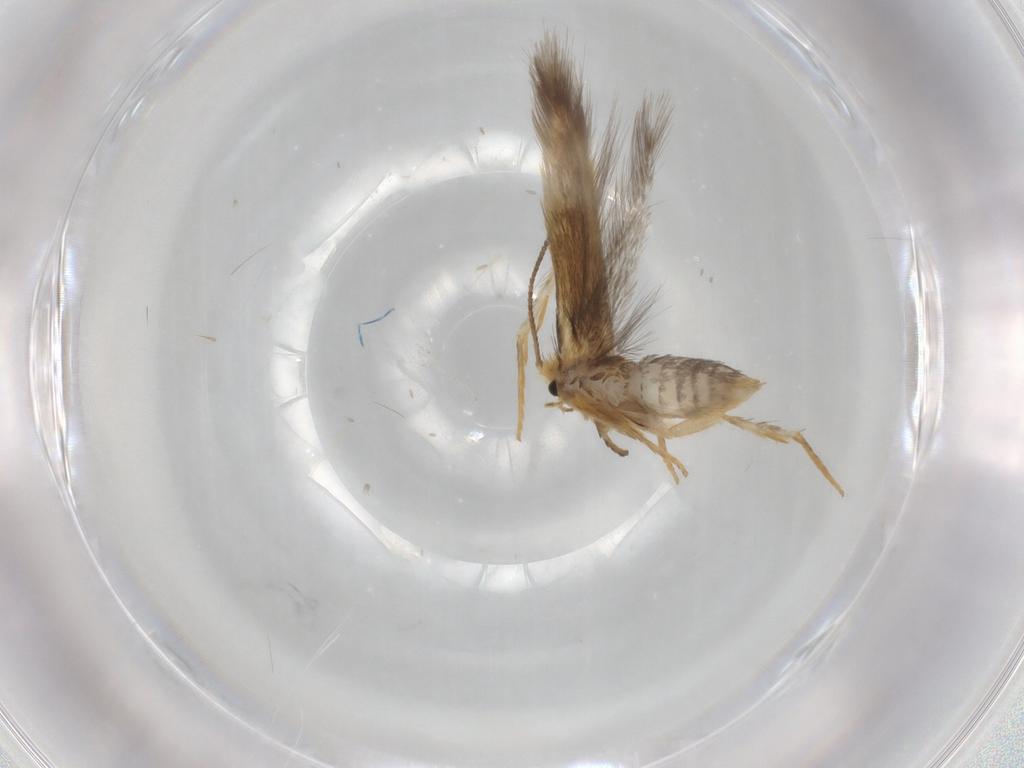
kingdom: Animalia
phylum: Arthropoda
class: Insecta
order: Lepidoptera
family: Nepticulidae
